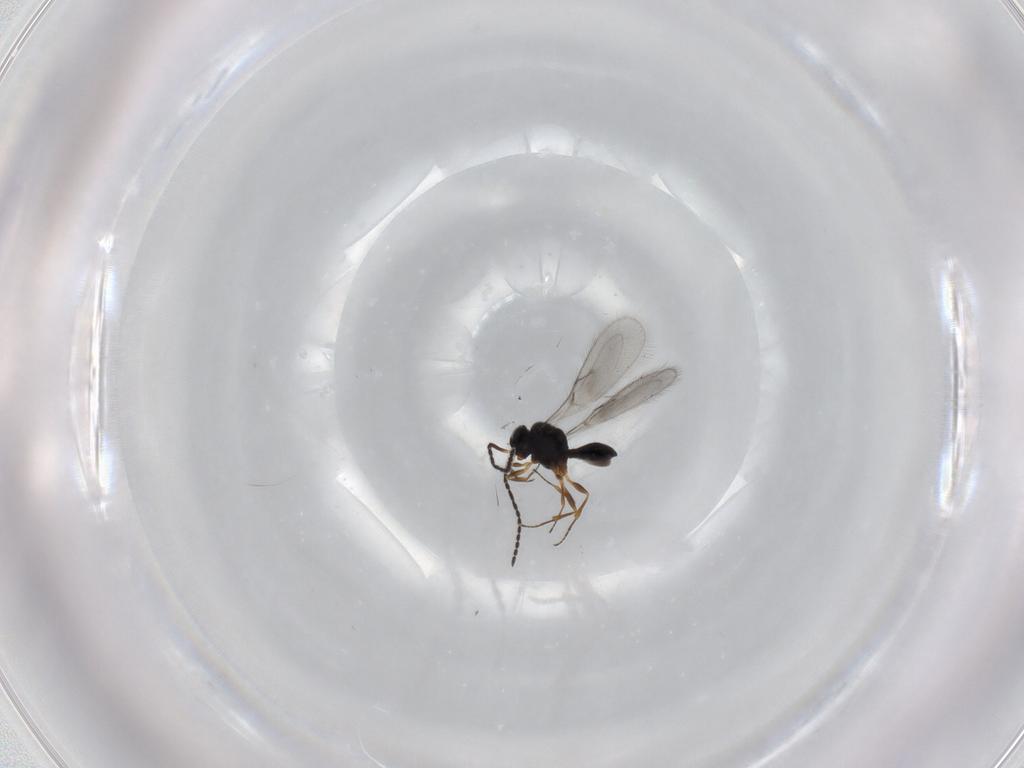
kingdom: Animalia
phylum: Arthropoda
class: Insecta
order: Hymenoptera
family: Scelionidae
